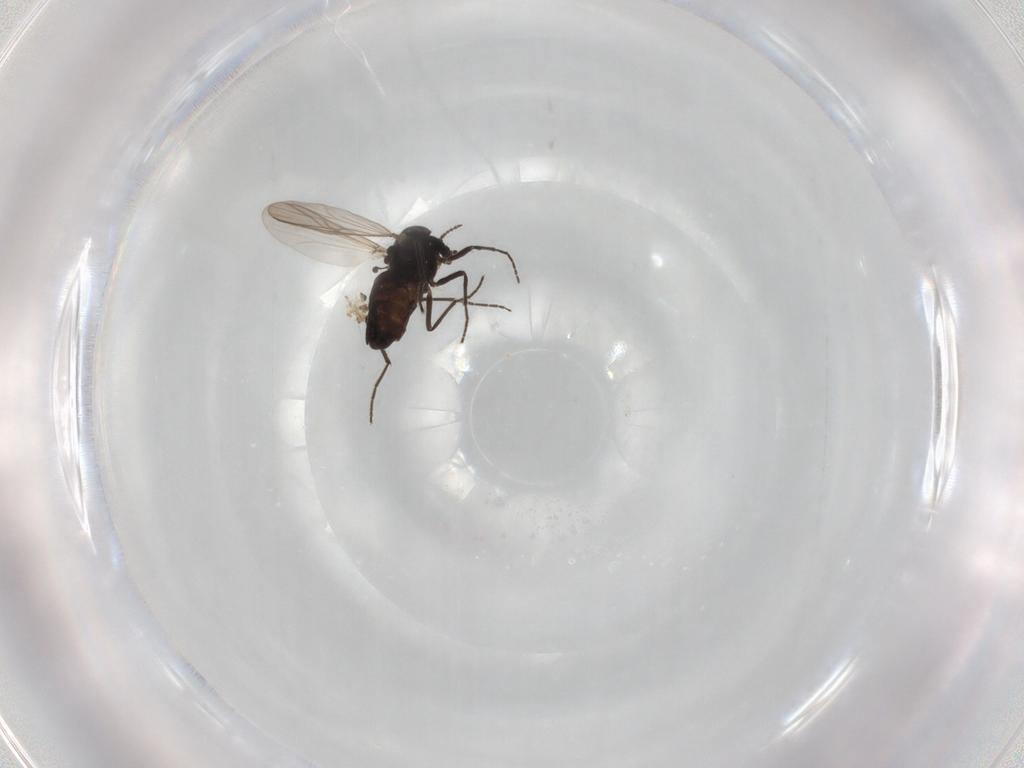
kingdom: Animalia
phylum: Arthropoda
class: Insecta
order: Diptera
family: Chironomidae
